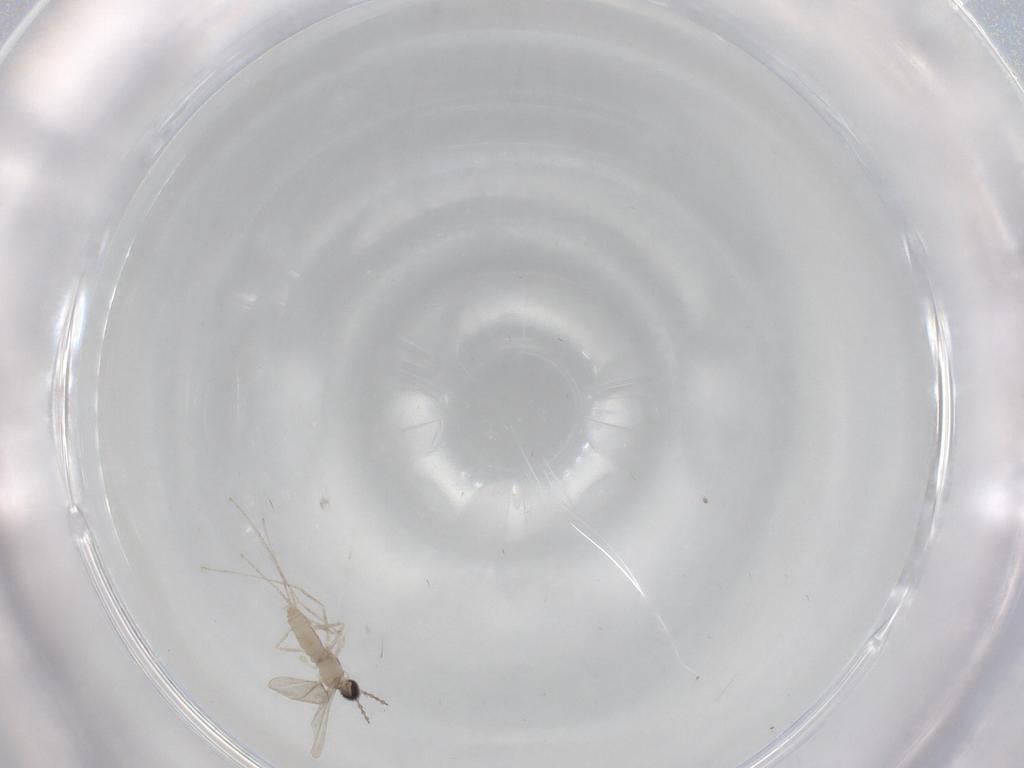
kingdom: Animalia
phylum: Arthropoda
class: Insecta
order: Diptera
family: Cecidomyiidae
